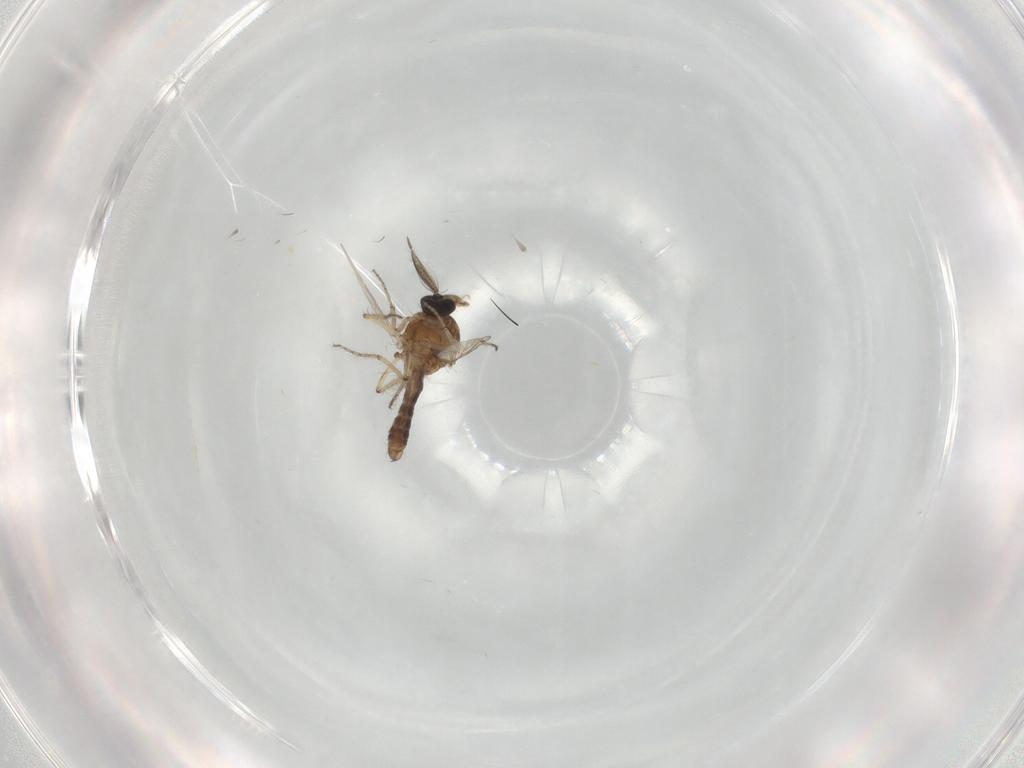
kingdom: Animalia
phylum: Arthropoda
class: Insecta
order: Diptera
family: Ceratopogonidae
